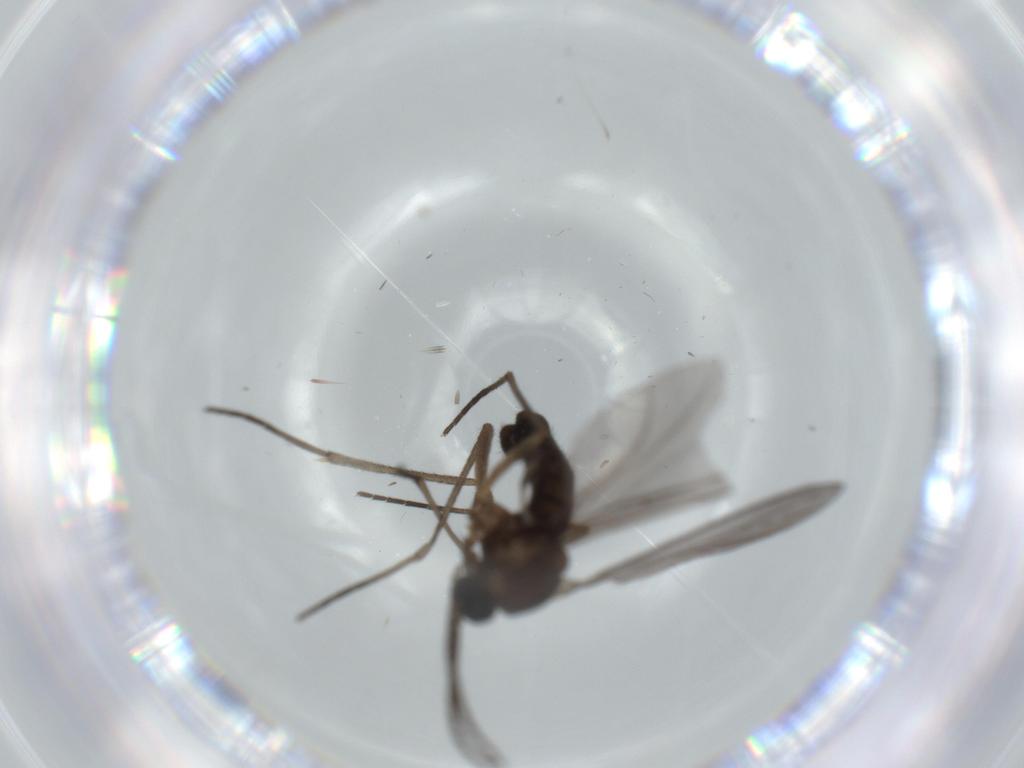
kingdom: Animalia
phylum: Arthropoda
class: Insecta
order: Diptera
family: Sciaridae
